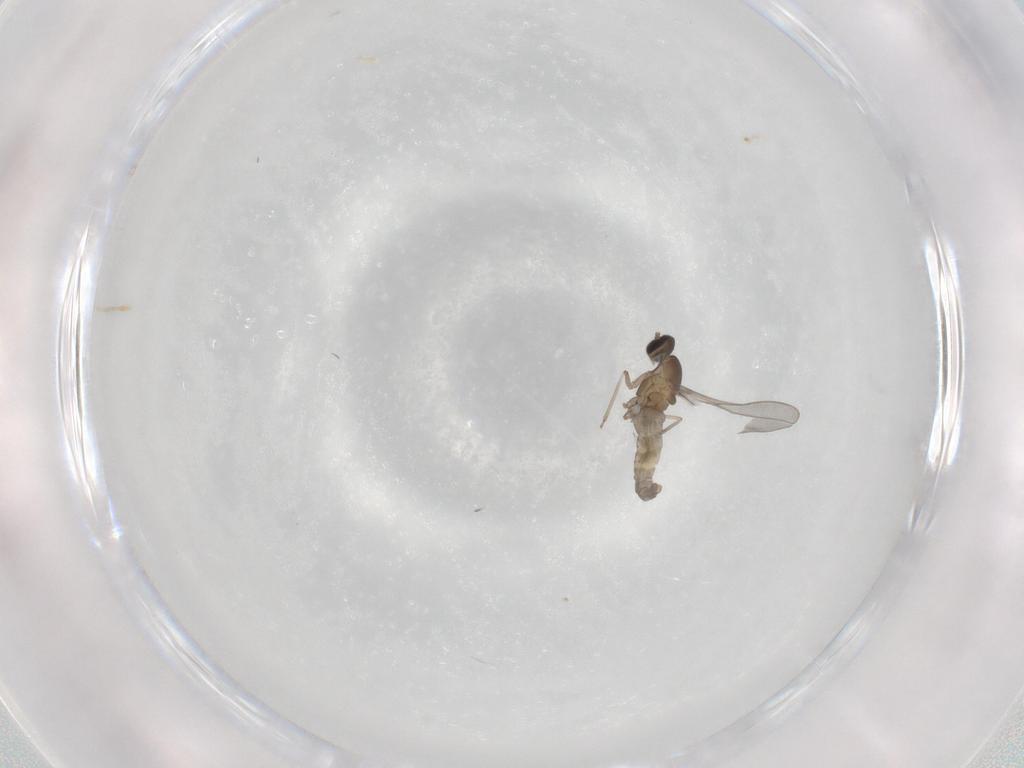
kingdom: Animalia
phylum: Arthropoda
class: Insecta
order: Diptera
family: Cecidomyiidae
